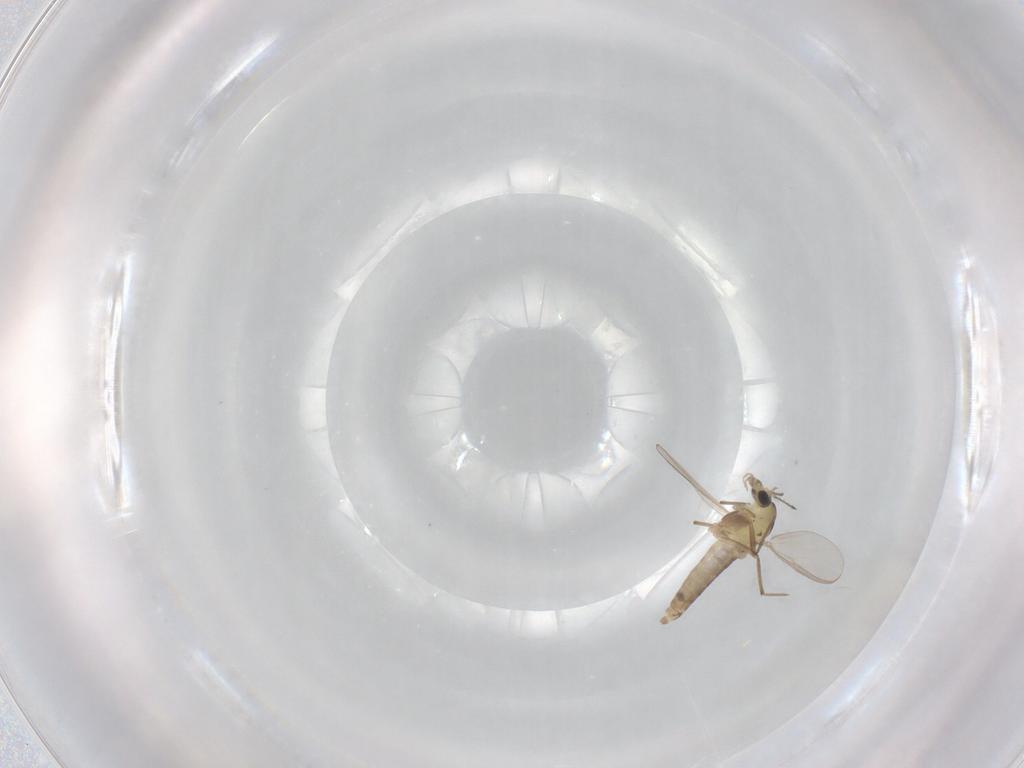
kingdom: Animalia
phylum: Arthropoda
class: Insecta
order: Diptera
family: Chironomidae
